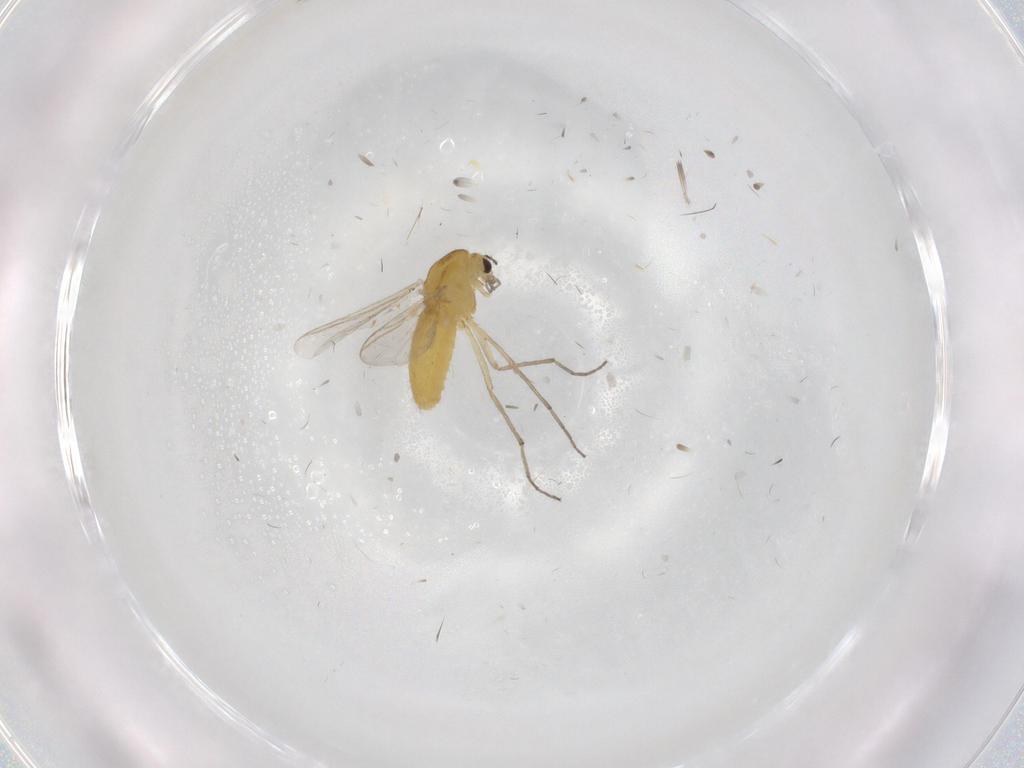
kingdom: Animalia
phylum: Arthropoda
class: Insecta
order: Diptera
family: Chironomidae
